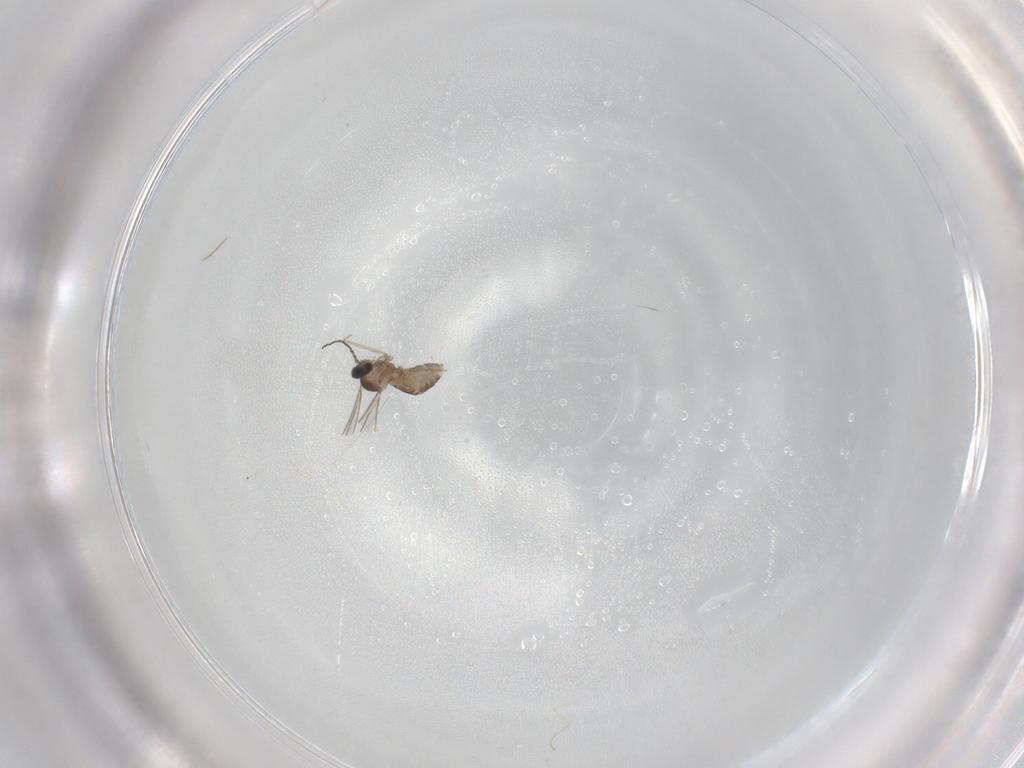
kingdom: Animalia
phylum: Arthropoda
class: Insecta
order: Diptera
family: Cecidomyiidae
